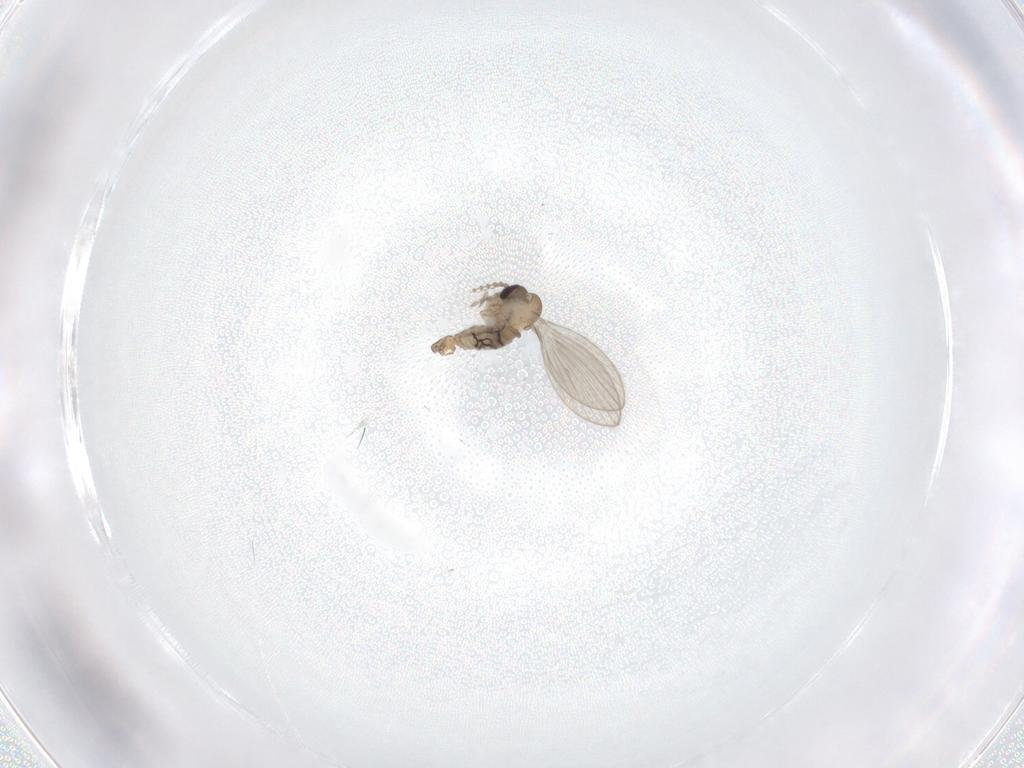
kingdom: Animalia
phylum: Arthropoda
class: Insecta
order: Diptera
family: Psychodidae
